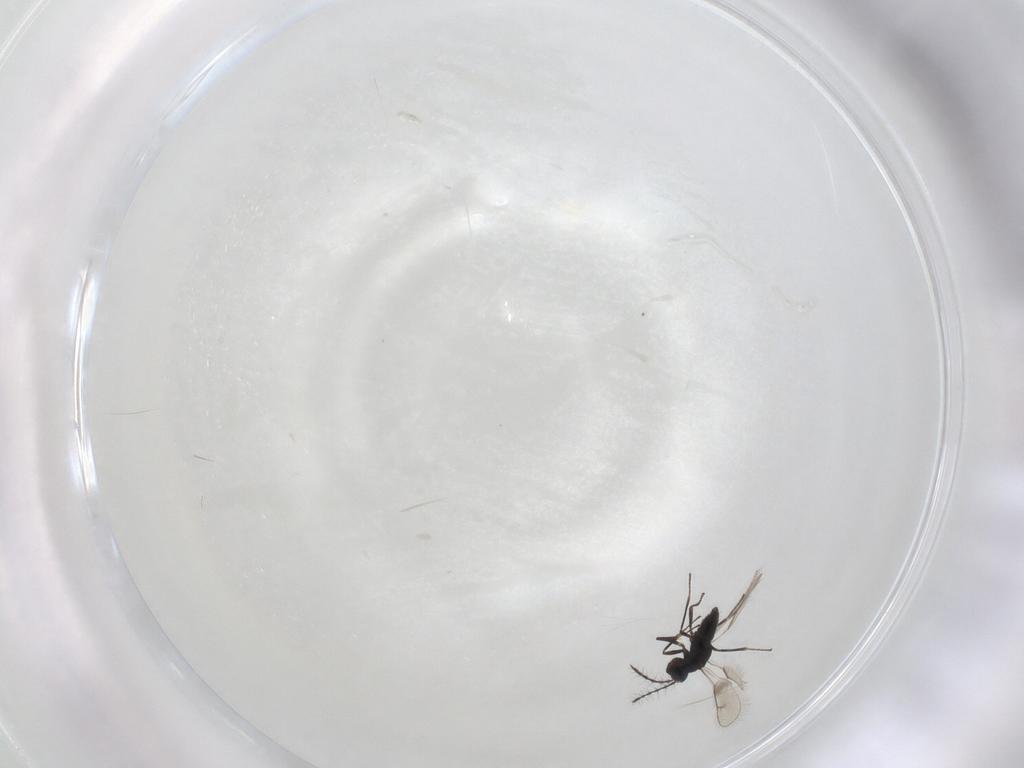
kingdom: Animalia
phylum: Arthropoda
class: Insecta
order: Hymenoptera
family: Pteromalidae
